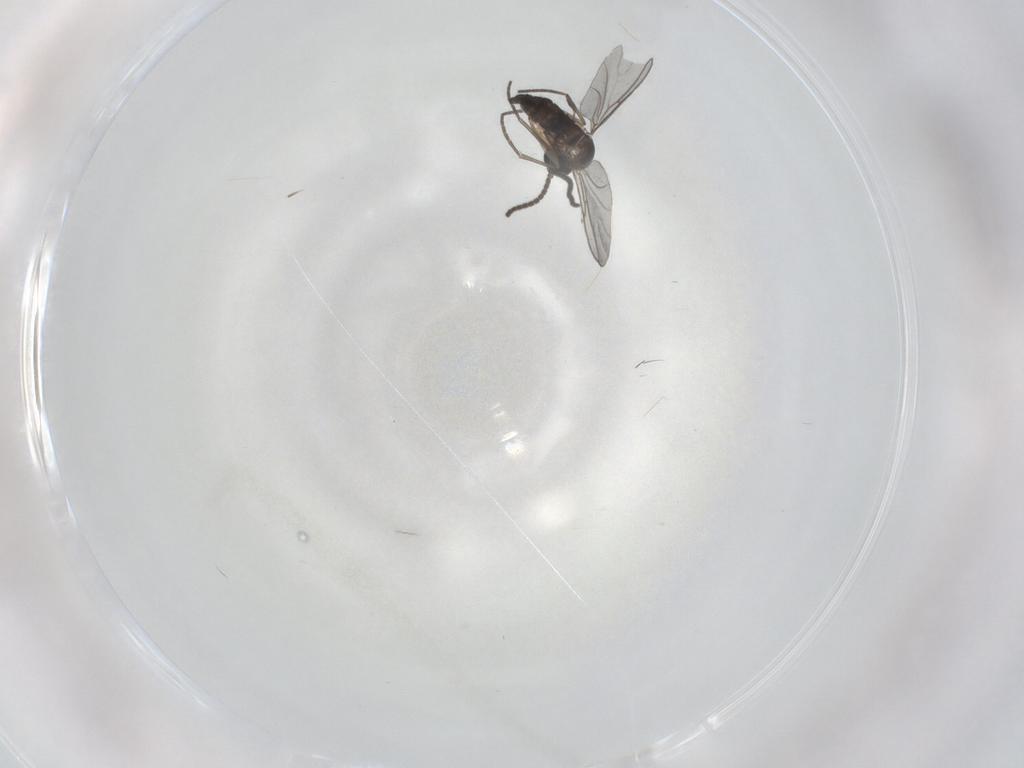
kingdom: Animalia
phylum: Arthropoda
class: Insecta
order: Diptera
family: Sciaridae
